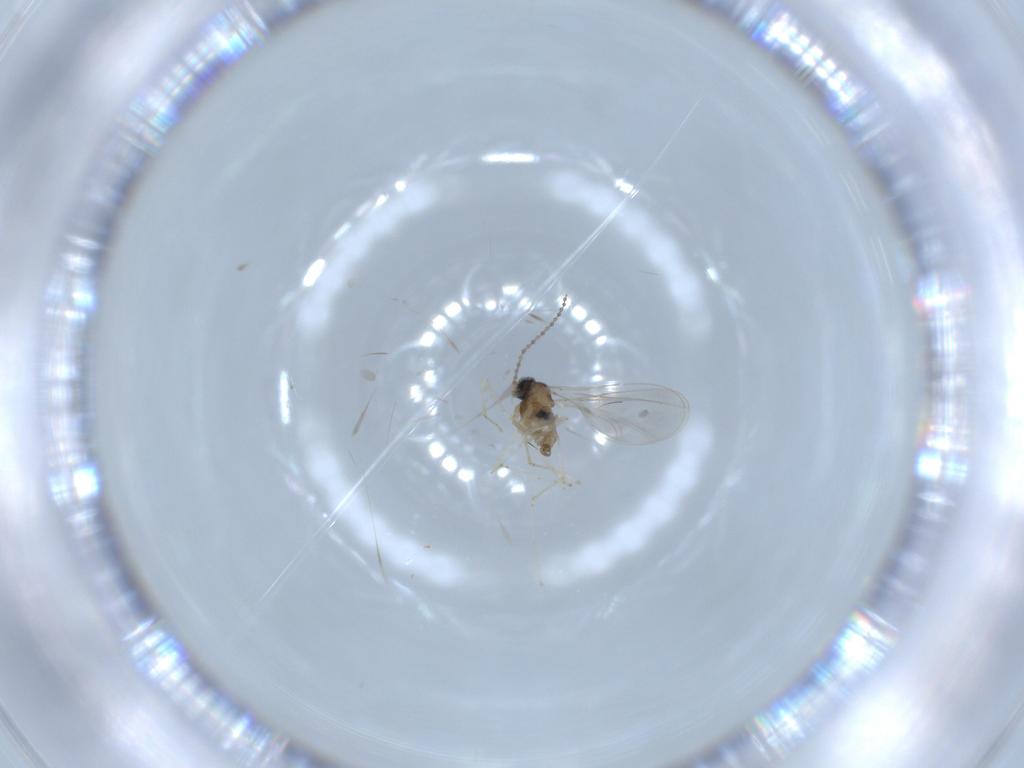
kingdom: Animalia
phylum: Arthropoda
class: Insecta
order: Diptera
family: Cecidomyiidae
